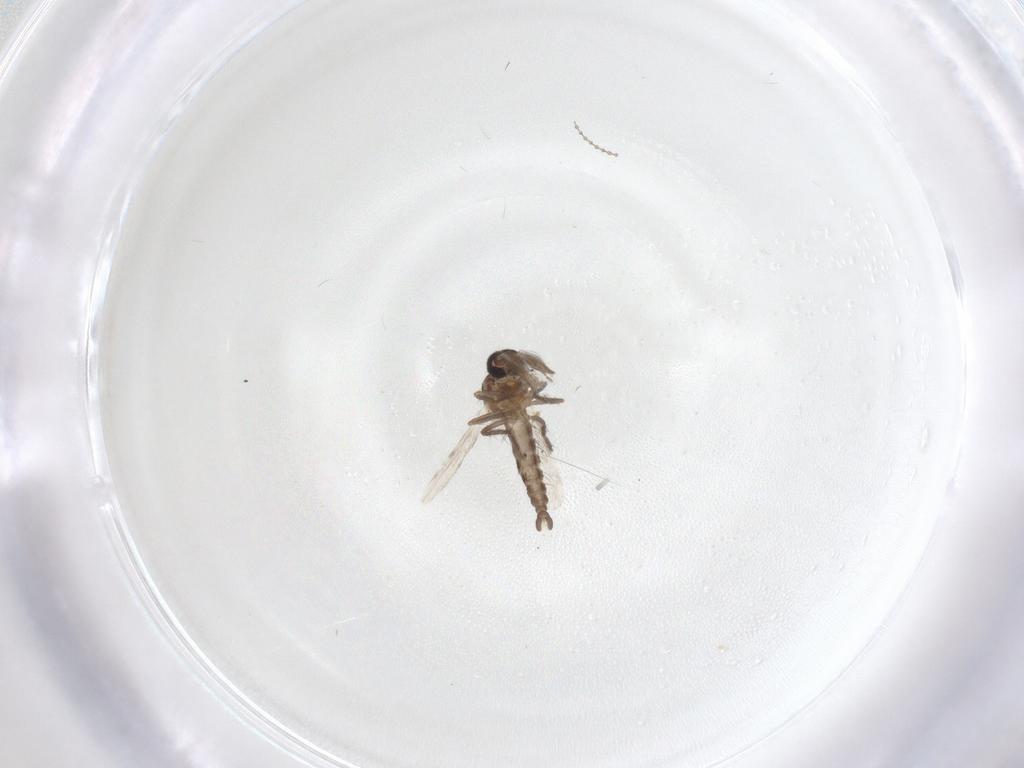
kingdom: Animalia
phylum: Arthropoda
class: Insecta
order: Diptera
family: Ceratopogonidae
